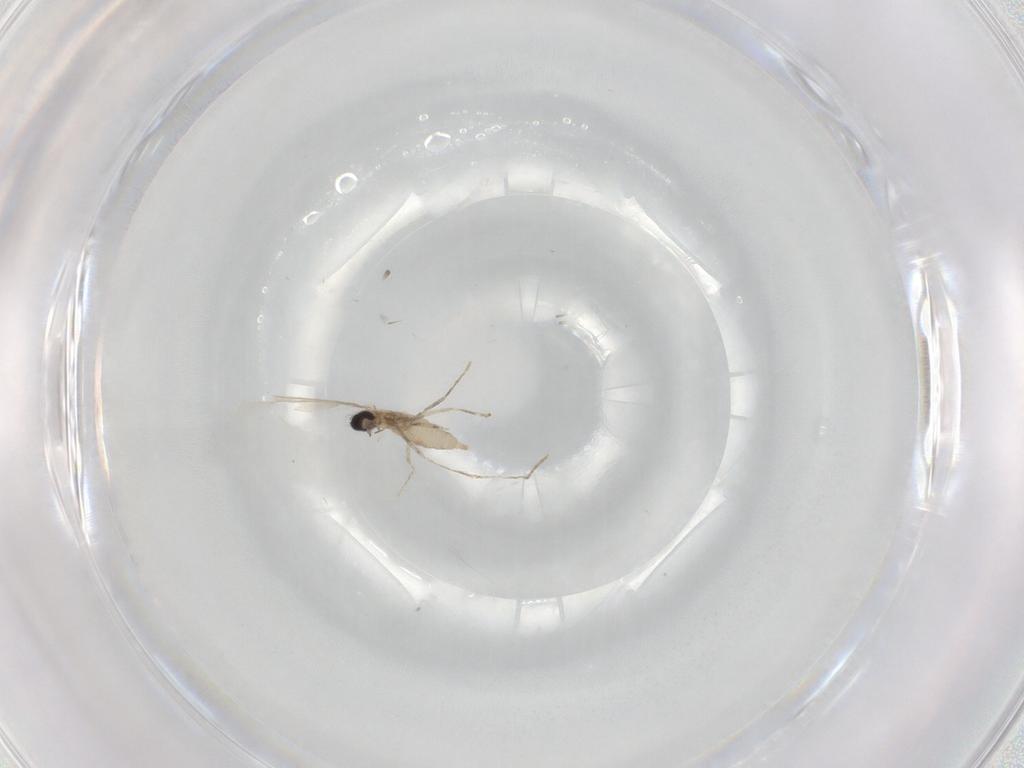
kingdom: Animalia
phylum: Arthropoda
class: Insecta
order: Diptera
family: Cecidomyiidae
